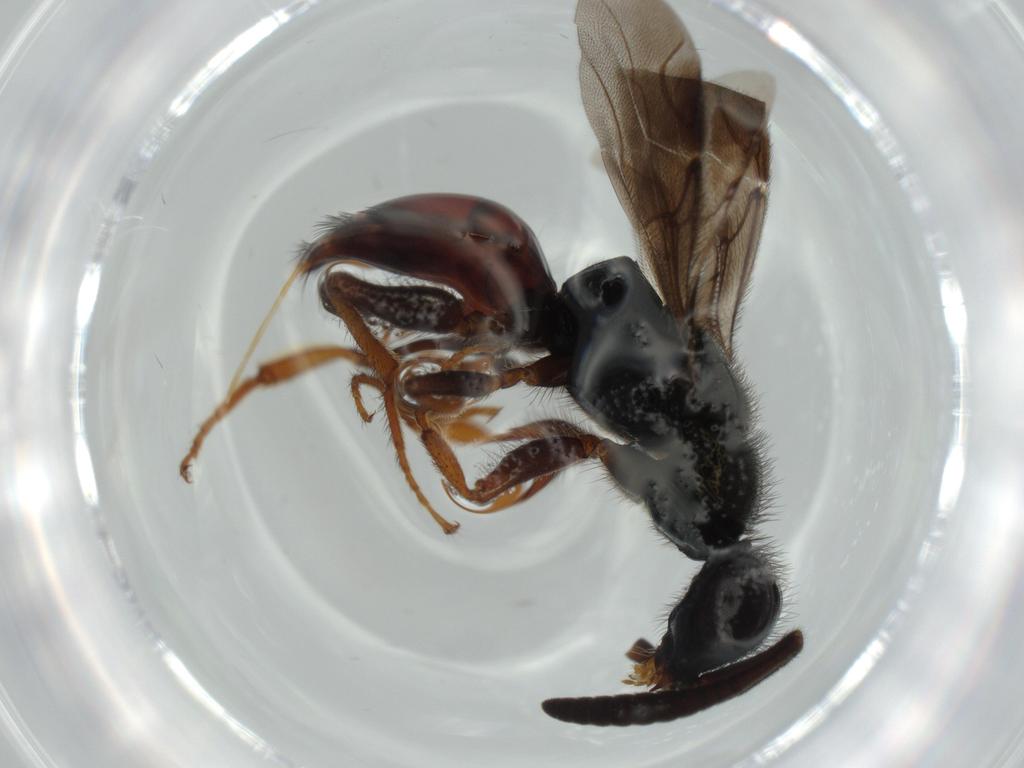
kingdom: Animalia
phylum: Arthropoda
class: Insecta
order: Hymenoptera
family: Chrysididae
